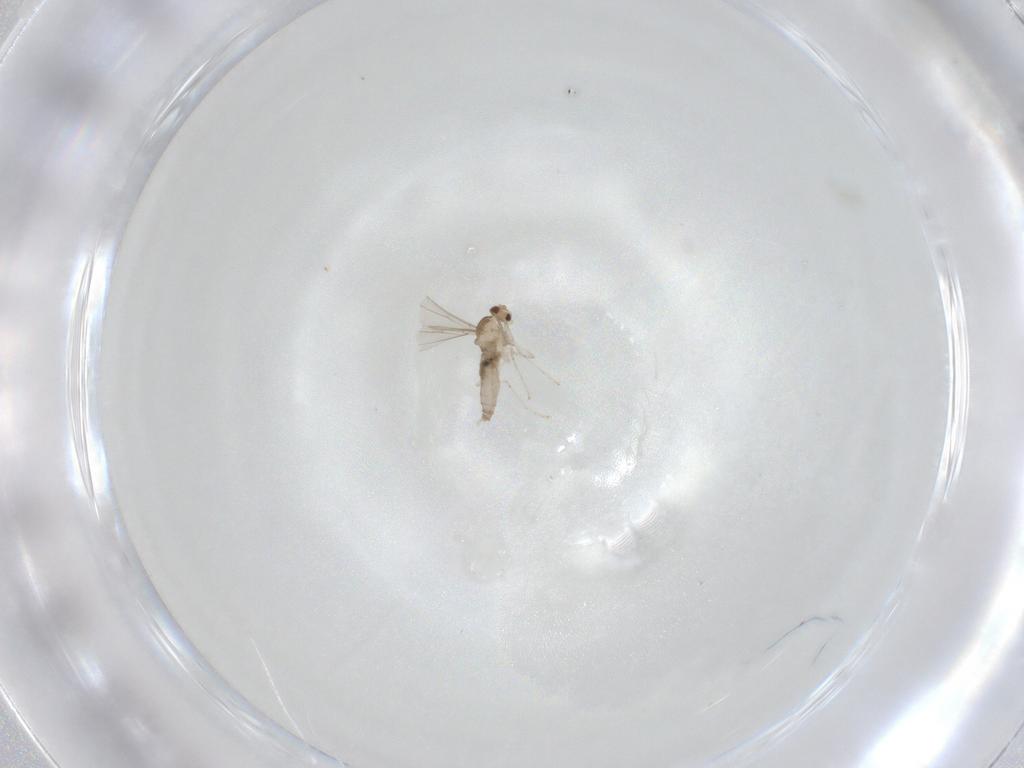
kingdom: Animalia
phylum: Arthropoda
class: Insecta
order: Diptera
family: Cecidomyiidae
